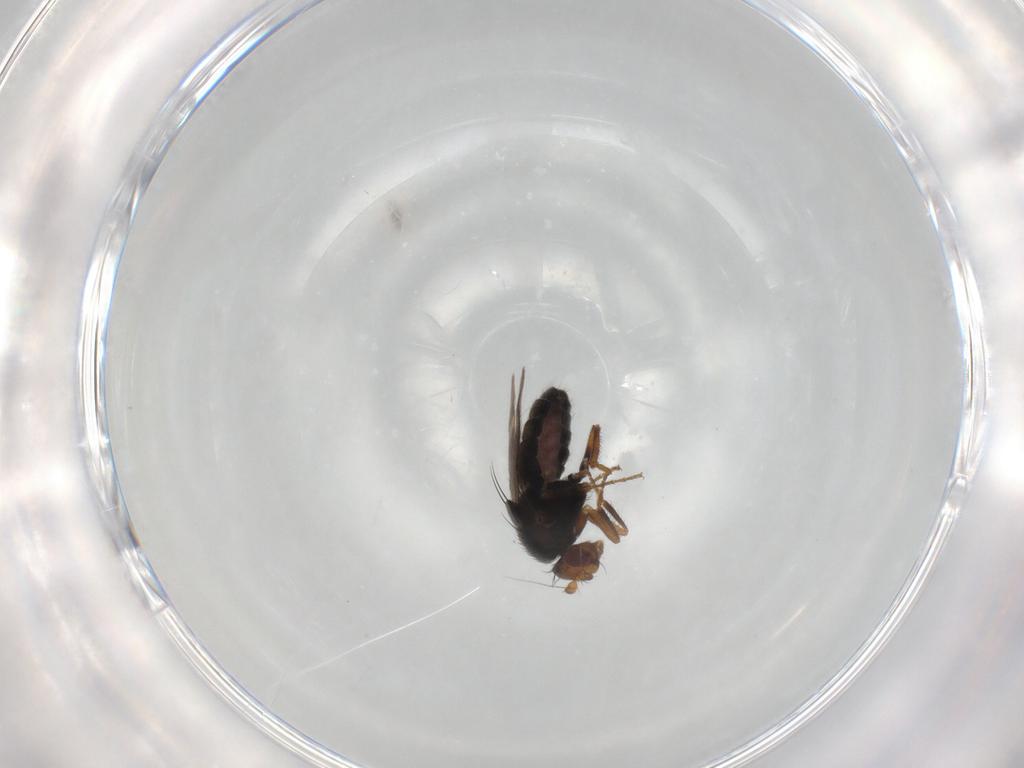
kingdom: Animalia
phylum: Arthropoda
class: Insecta
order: Diptera
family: Sphaeroceridae
